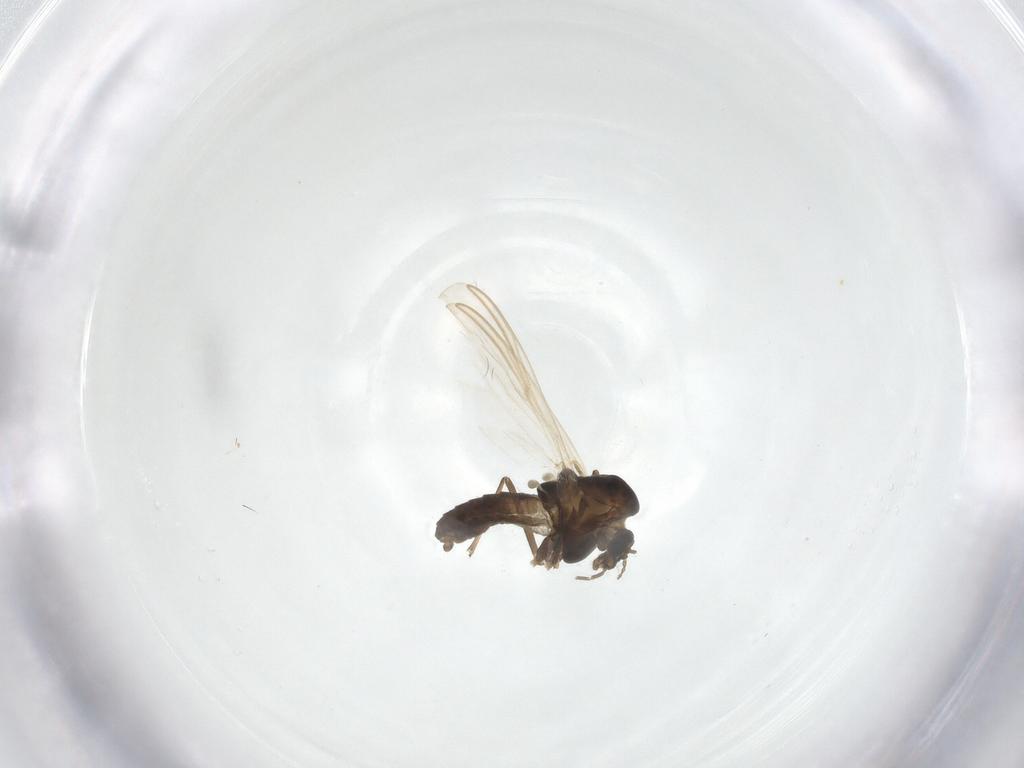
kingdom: Animalia
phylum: Arthropoda
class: Insecta
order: Diptera
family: Chironomidae
